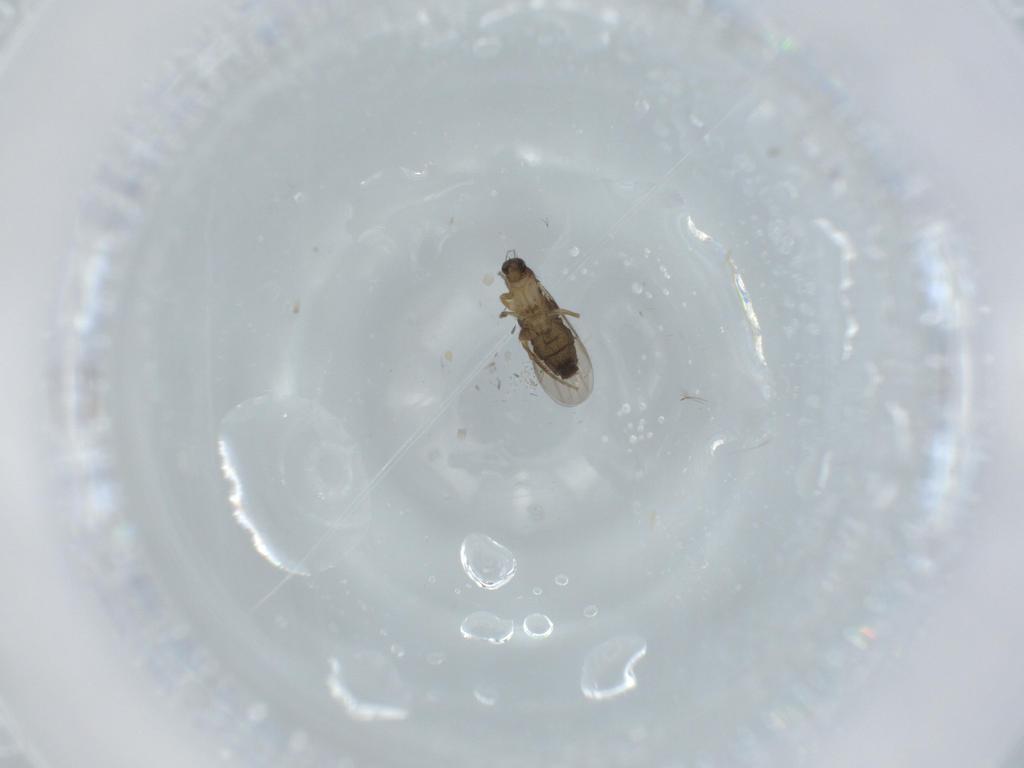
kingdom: Animalia
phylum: Arthropoda
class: Insecta
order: Diptera
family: Phoridae
